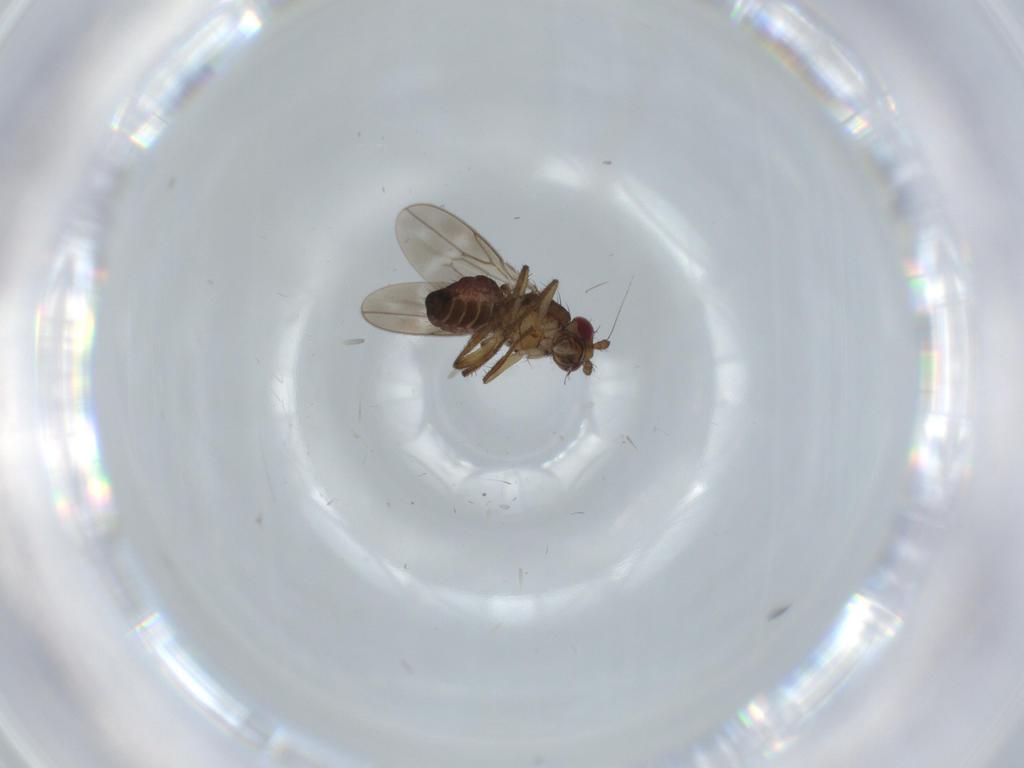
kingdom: Animalia
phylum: Arthropoda
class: Insecta
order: Diptera
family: Sphaeroceridae
